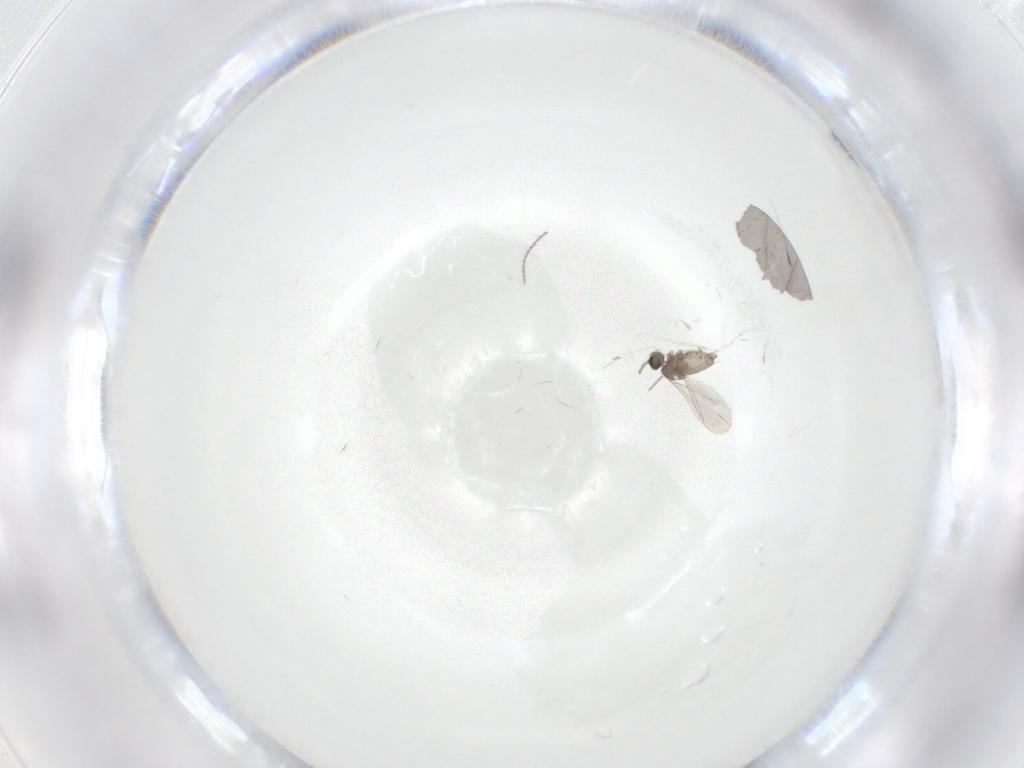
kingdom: Animalia
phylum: Arthropoda
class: Insecta
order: Diptera
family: Cecidomyiidae
